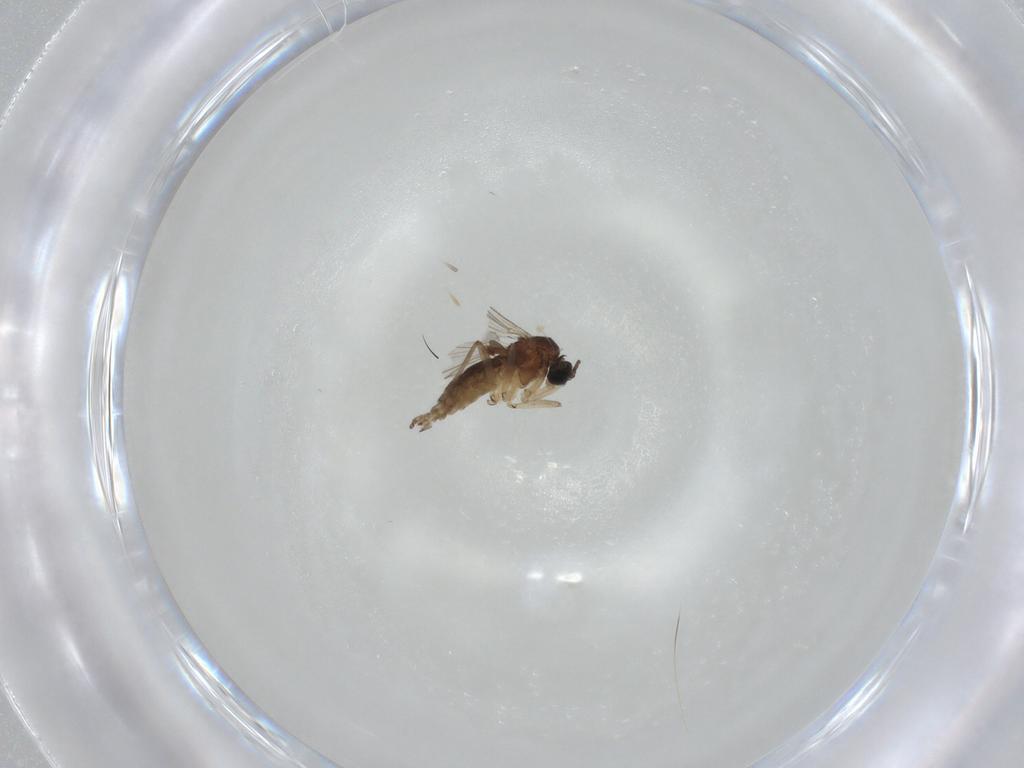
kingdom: Animalia
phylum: Arthropoda
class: Insecta
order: Diptera
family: Sciaridae
